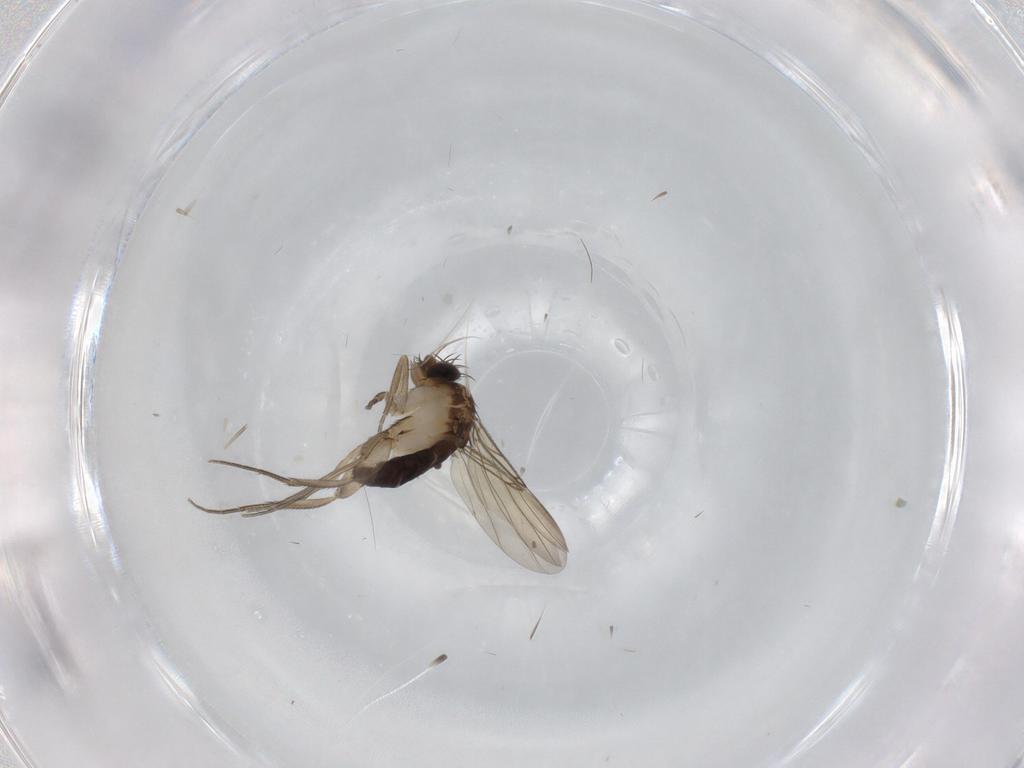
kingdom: Animalia
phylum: Arthropoda
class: Insecta
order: Diptera
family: Phoridae
